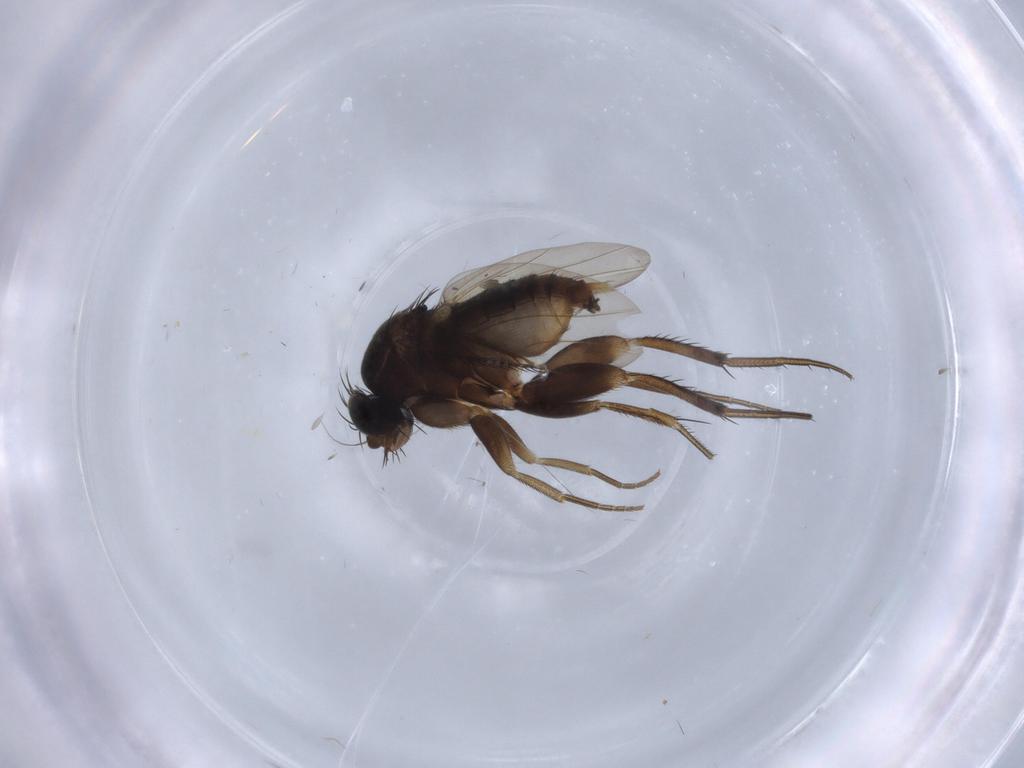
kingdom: Animalia
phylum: Arthropoda
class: Insecta
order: Diptera
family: Phoridae
